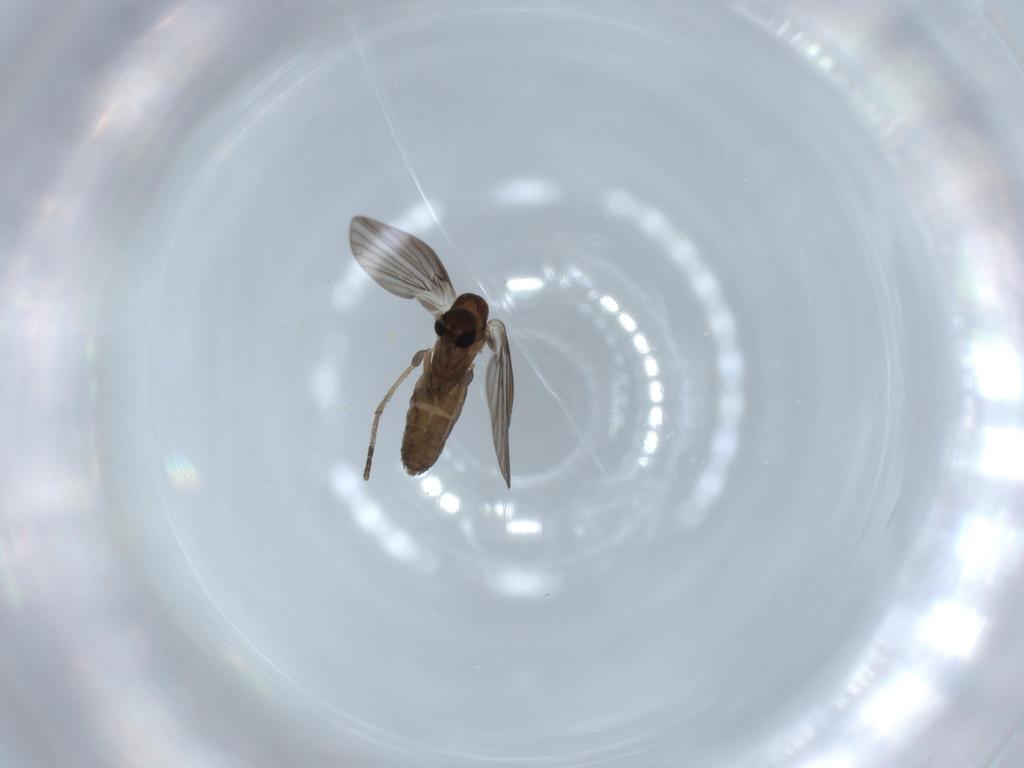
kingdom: Animalia
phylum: Arthropoda
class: Insecta
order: Diptera
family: Psychodidae
